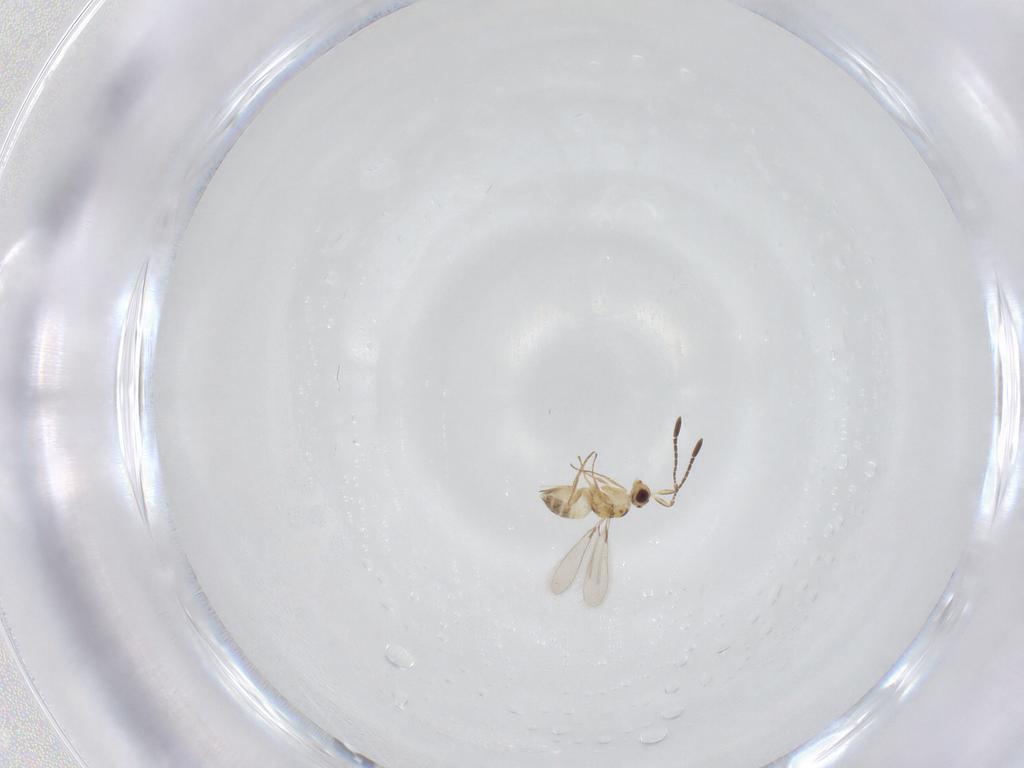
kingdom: Animalia
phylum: Arthropoda
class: Insecta
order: Hymenoptera
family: Mymaridae
